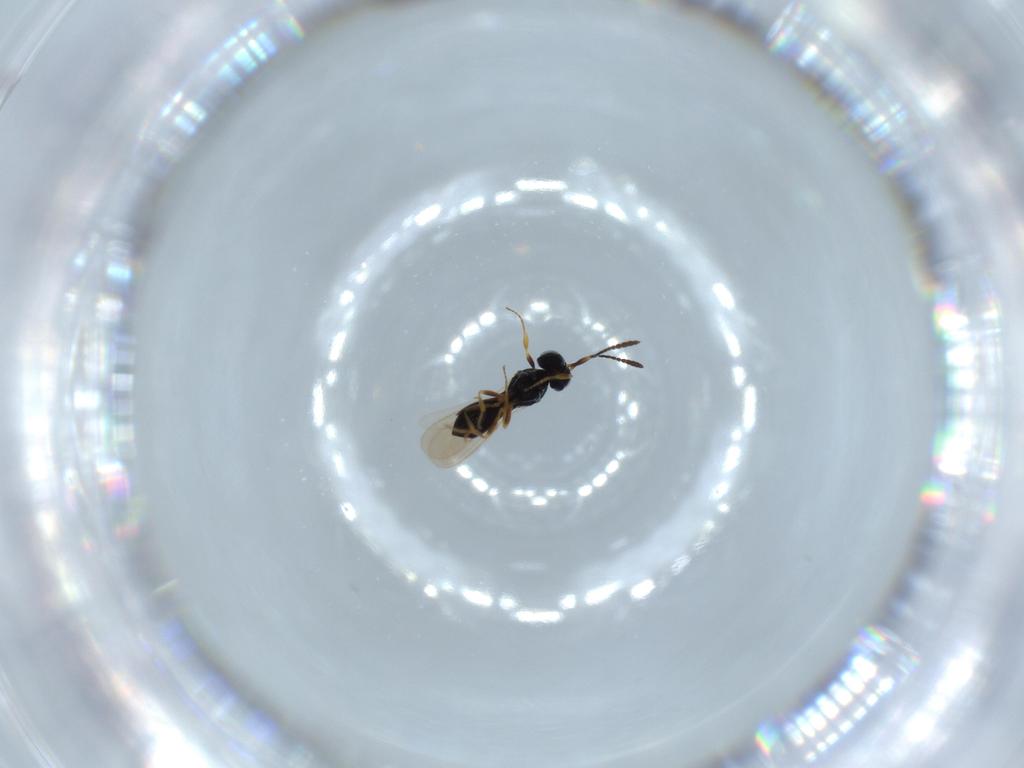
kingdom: Animalia
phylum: Arthropoda
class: Insecta
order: Hymenoptera
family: Scelionidae
